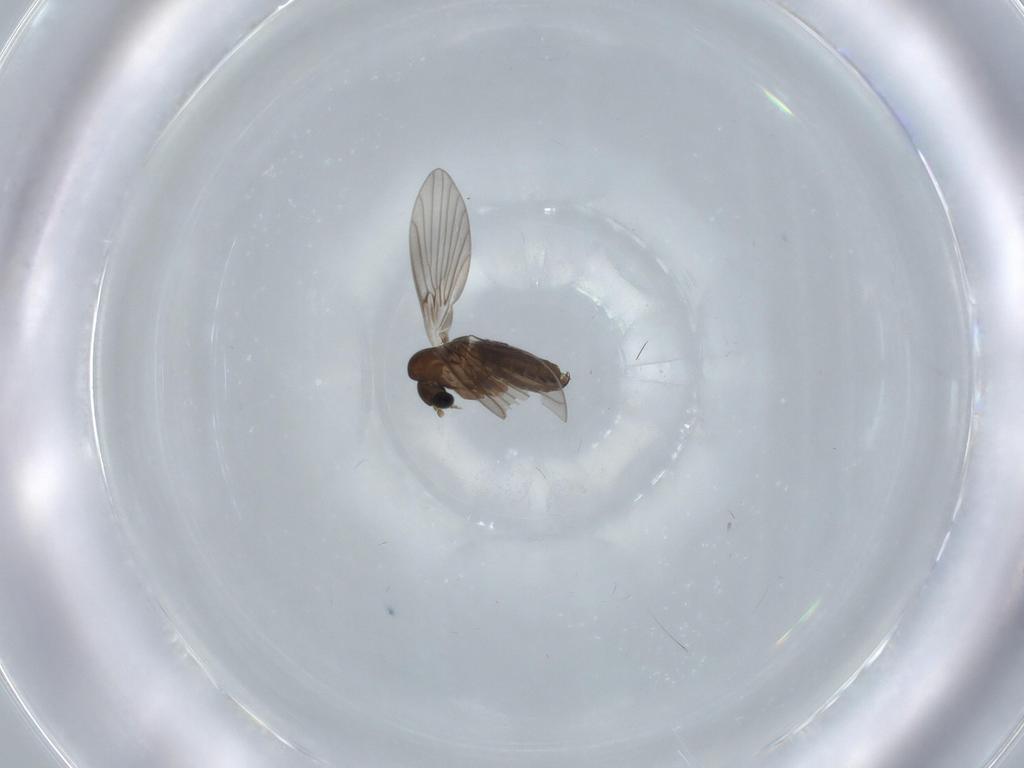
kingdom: Animalia
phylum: Arthropoda
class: Insecta
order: Diptera
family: Psychodidae
